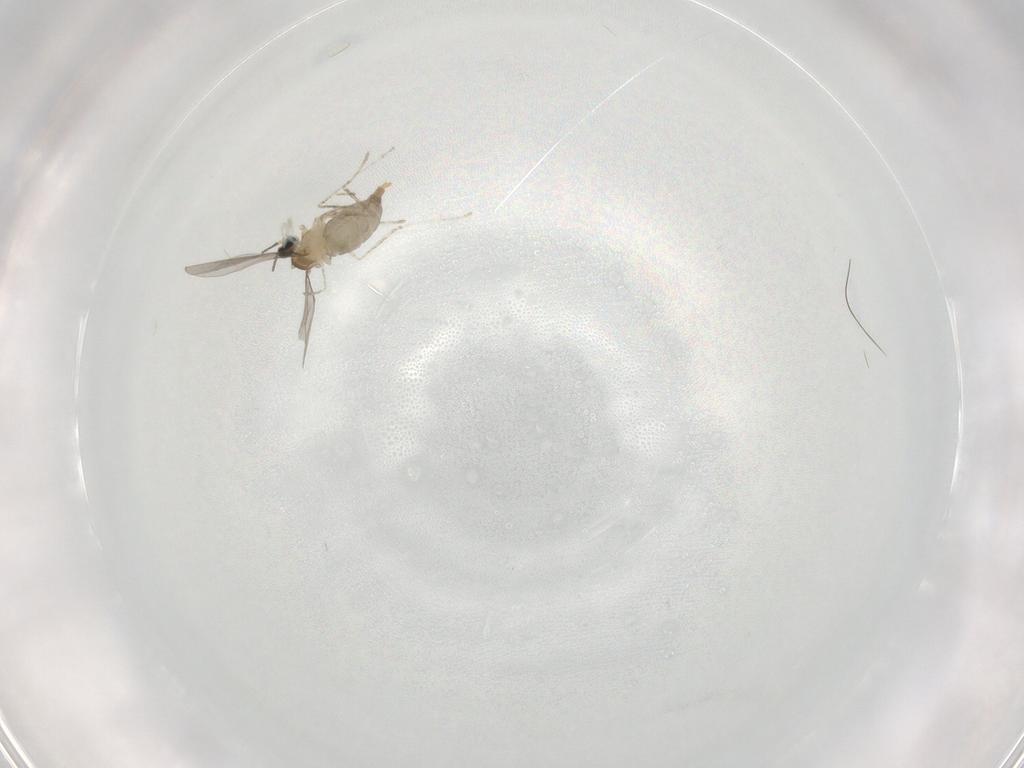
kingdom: Animalia
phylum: Arthropoda
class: Insecta
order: Diptera
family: Cecidomyiidae
